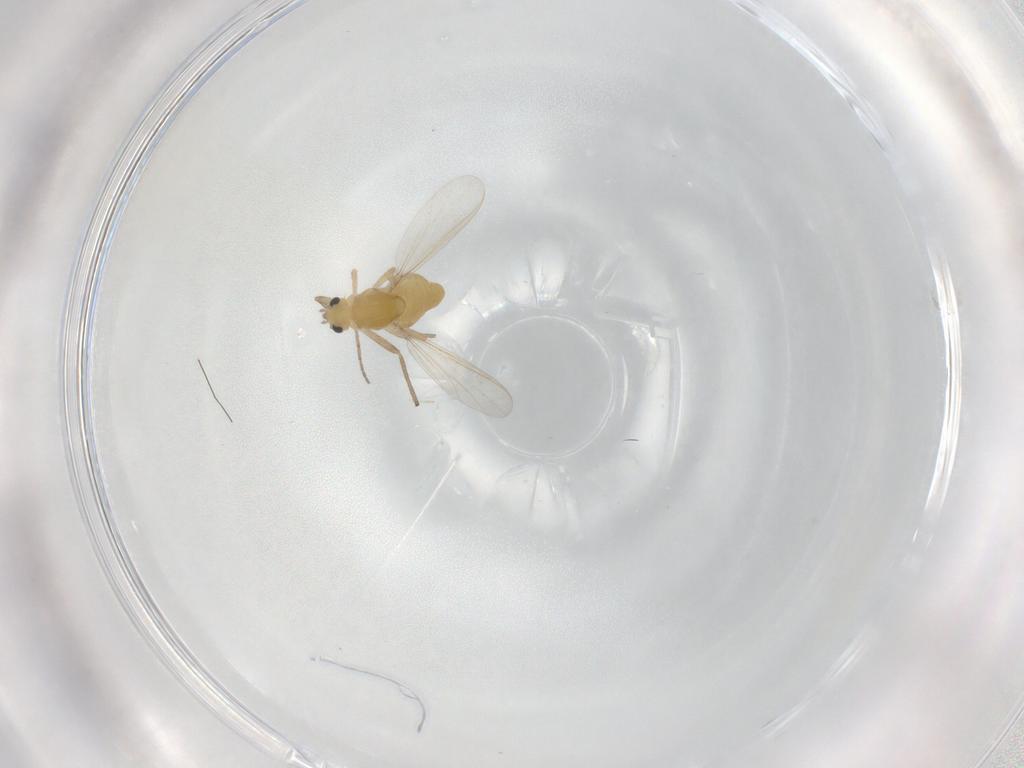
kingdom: Animalia
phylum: Arthropoda
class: Insecta
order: Diptera
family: Chironomidae
